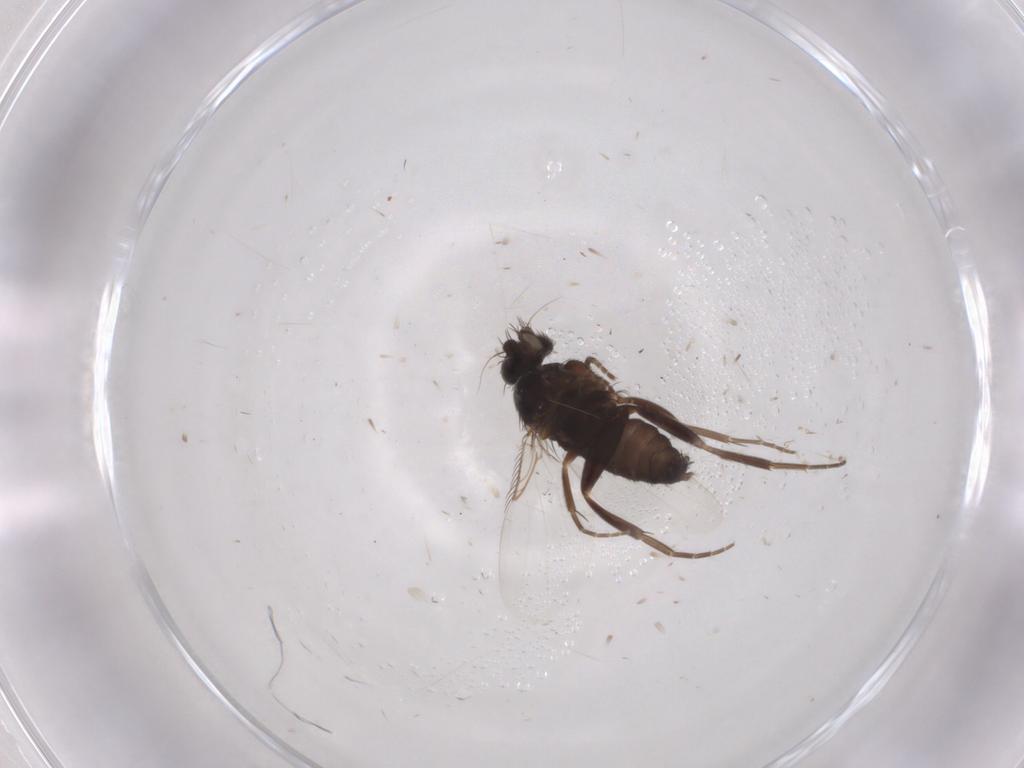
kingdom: Animalia
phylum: Arthropoda
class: Insecta
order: Diptera
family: Phoridae
